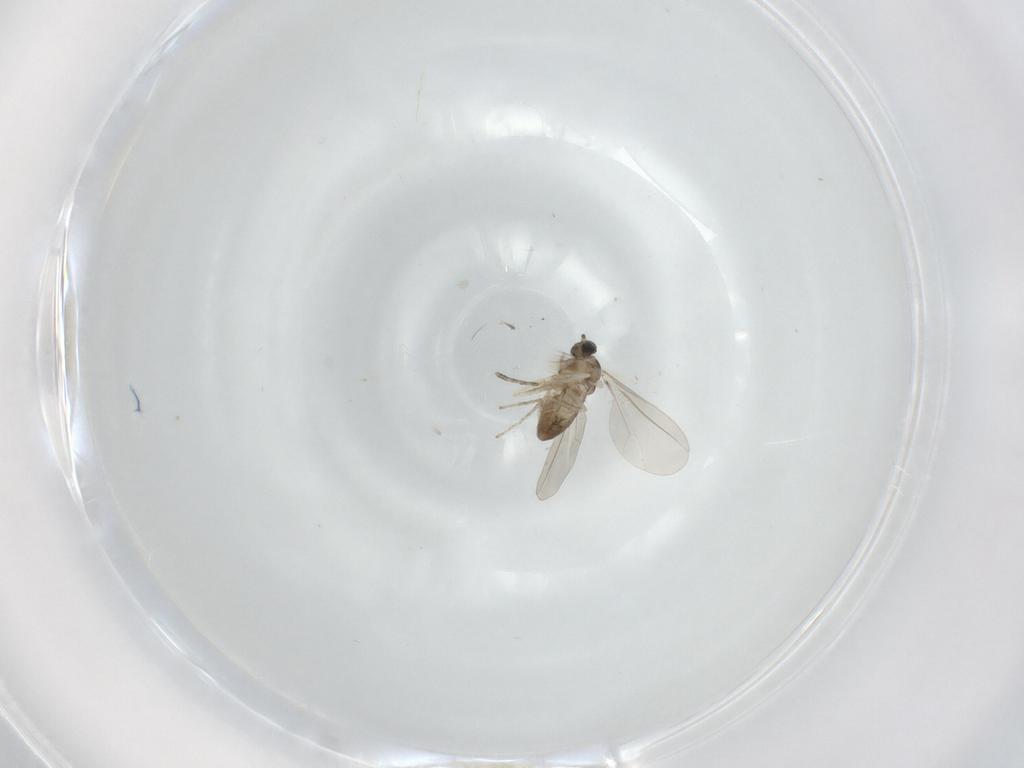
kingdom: Animalia
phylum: Arthropoda
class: Insecta
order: Diptera
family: Cecidomyiidae
